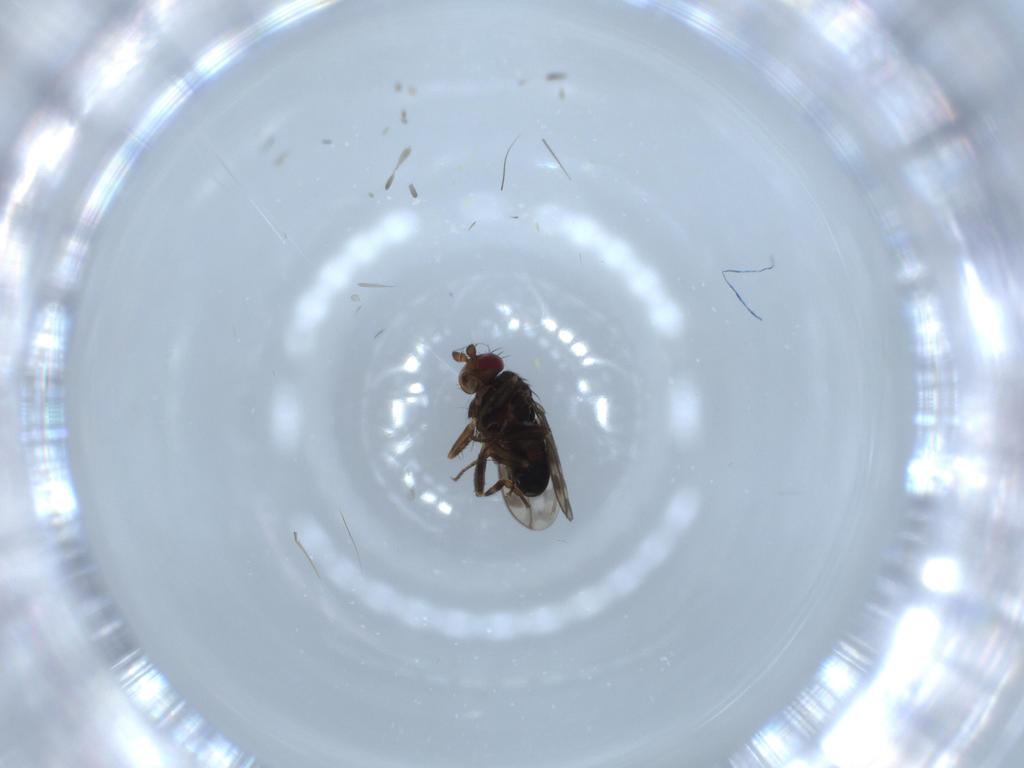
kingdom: Animalia
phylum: Arthropoda
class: Insecta
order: Diptera
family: Sphaeroceridae
